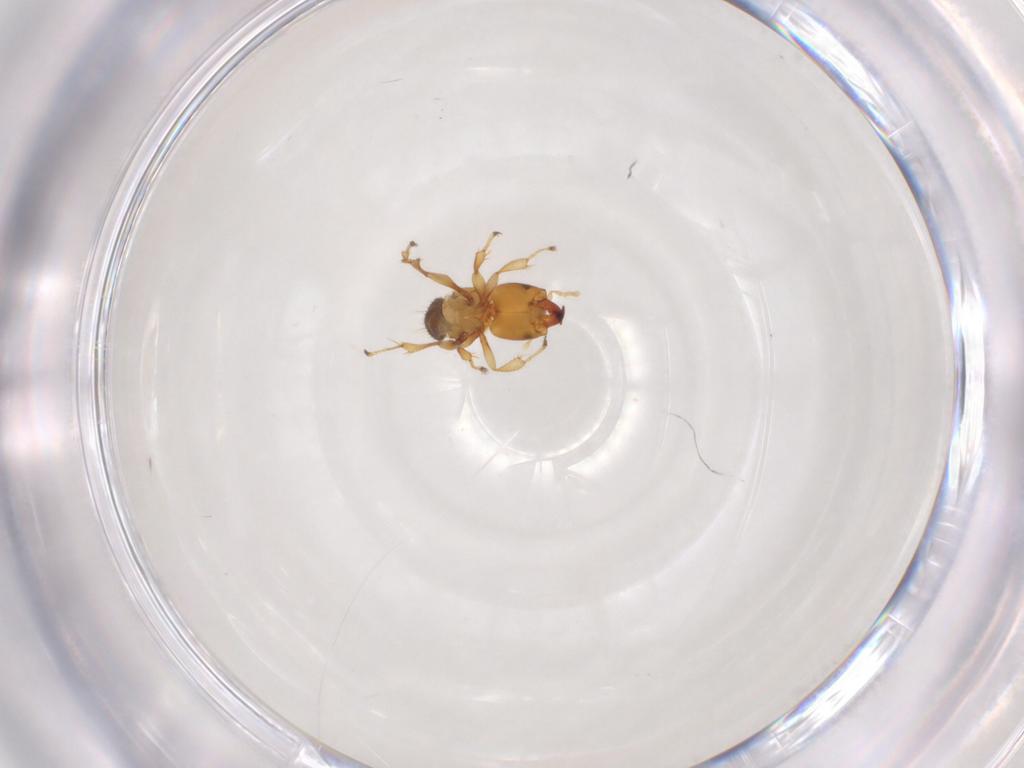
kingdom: Animalia
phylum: Arthropoda
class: Insecta
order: Hymenoptera
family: Pteromalidae
